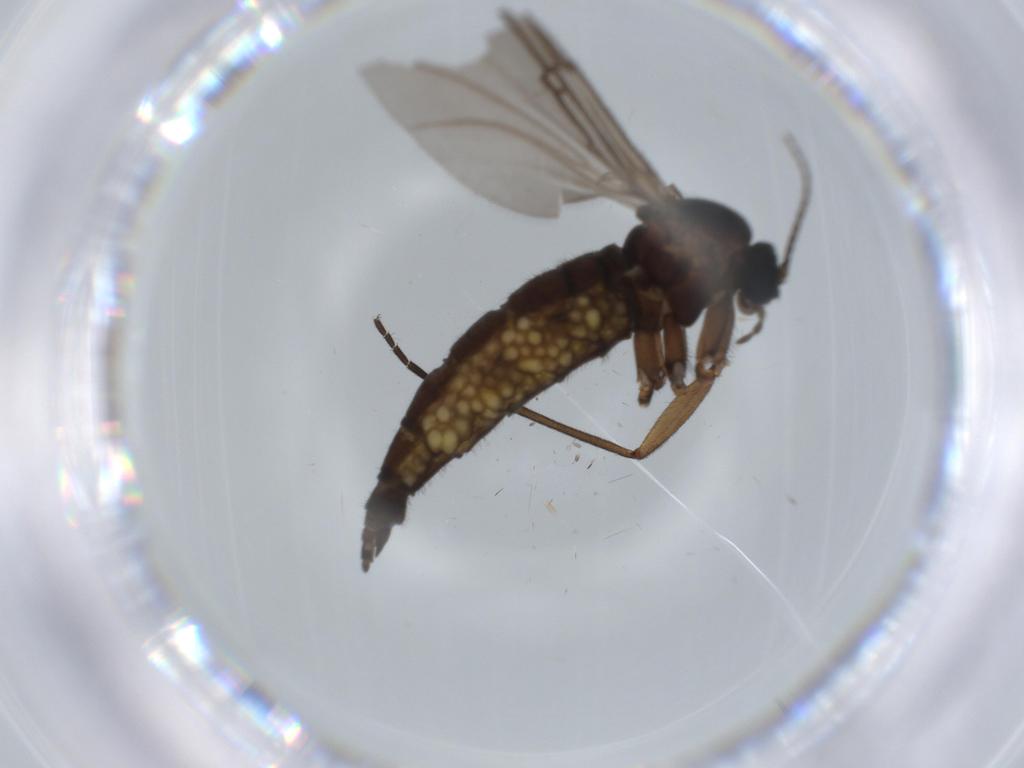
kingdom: Animalia
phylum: Arthropoda
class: Insecta
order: Diptera
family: Sciaridae
